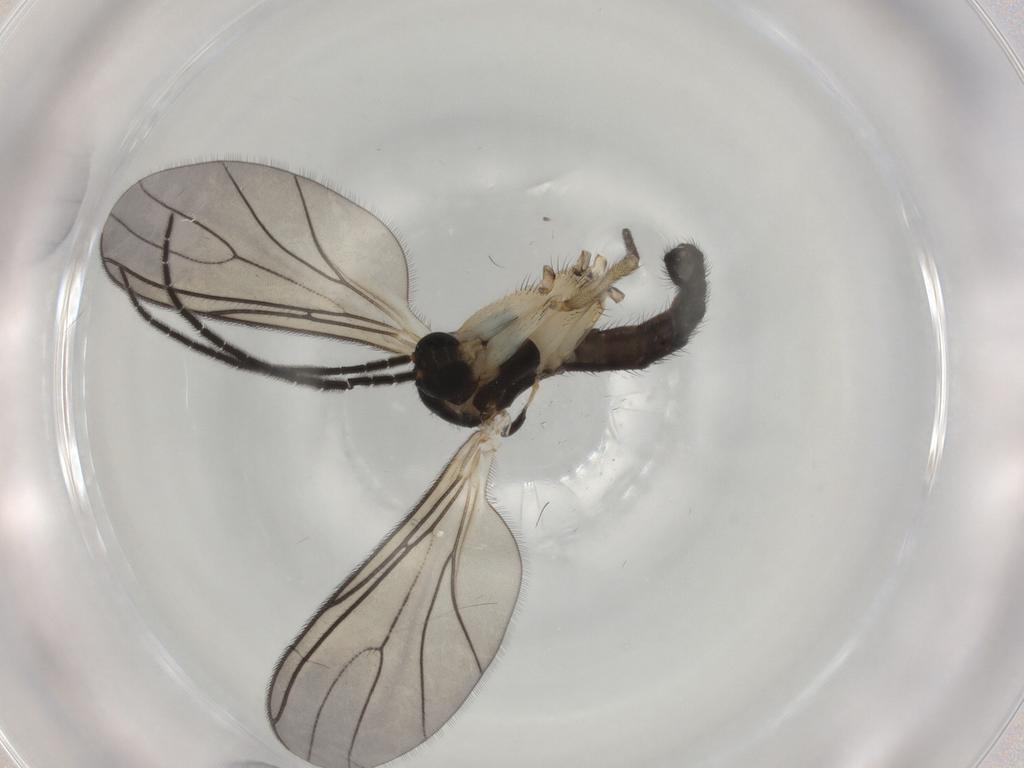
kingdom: Animalia
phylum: Arthropoda
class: Insecta
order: Diptera
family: Sciaridae
